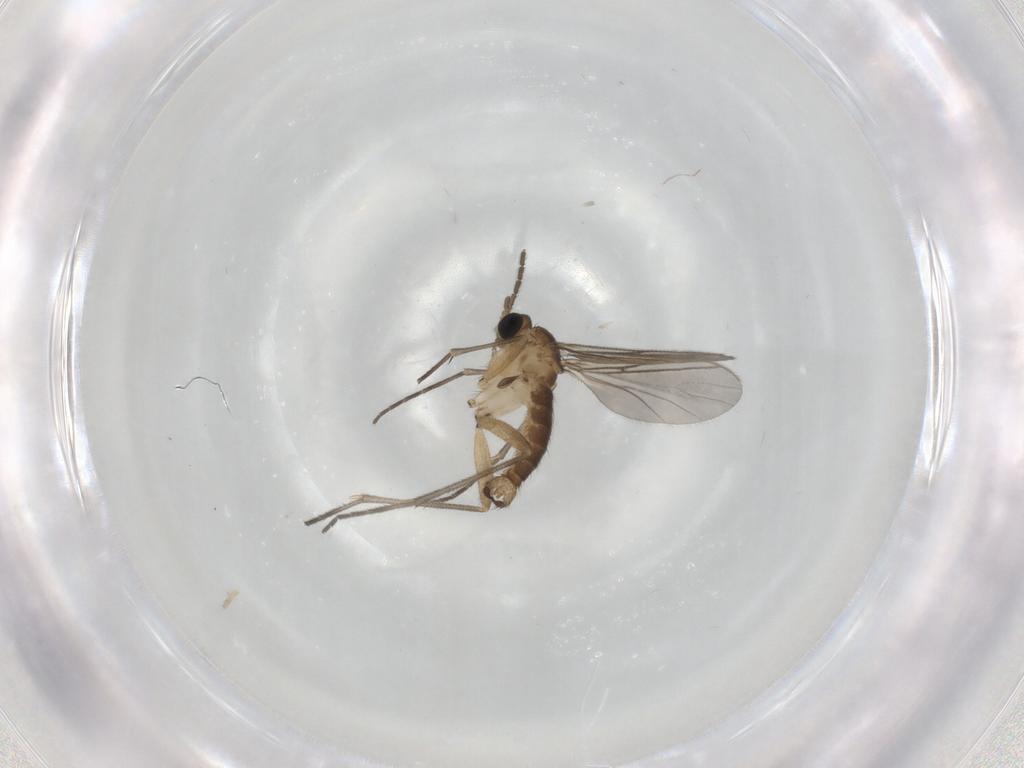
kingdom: Animalia
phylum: Arthropoda
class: Insecta
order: Diptera
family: Sciaridae
